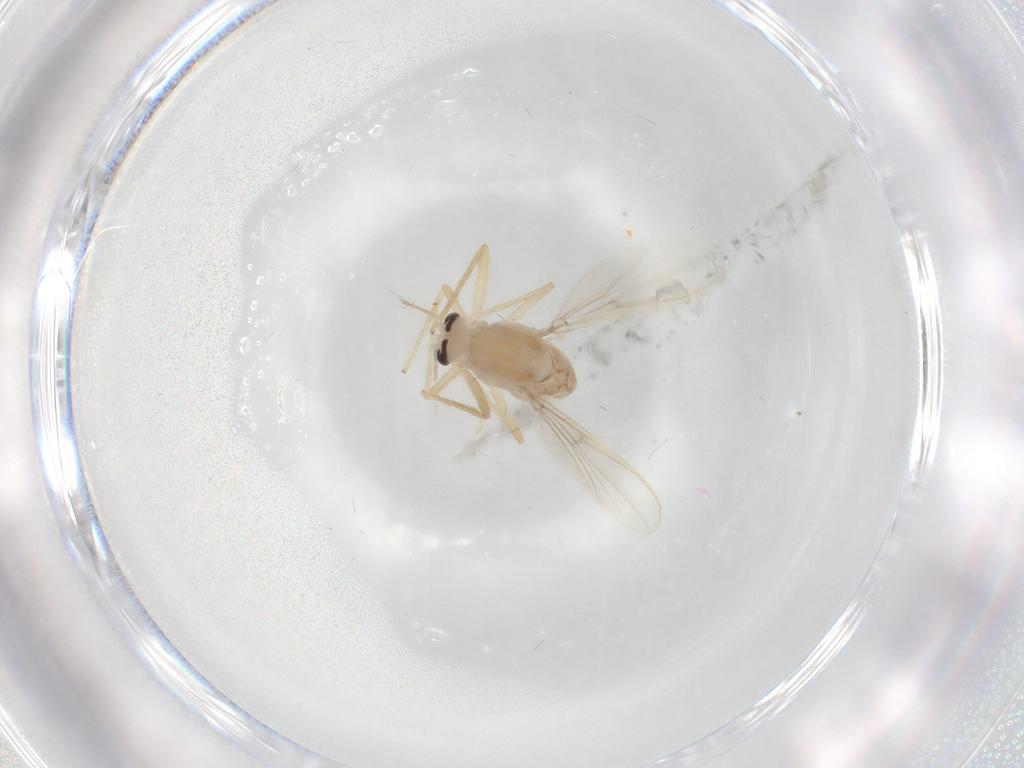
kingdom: Animalia
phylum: Arthropoda
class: Insecta
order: Diptera
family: Chironomidae
